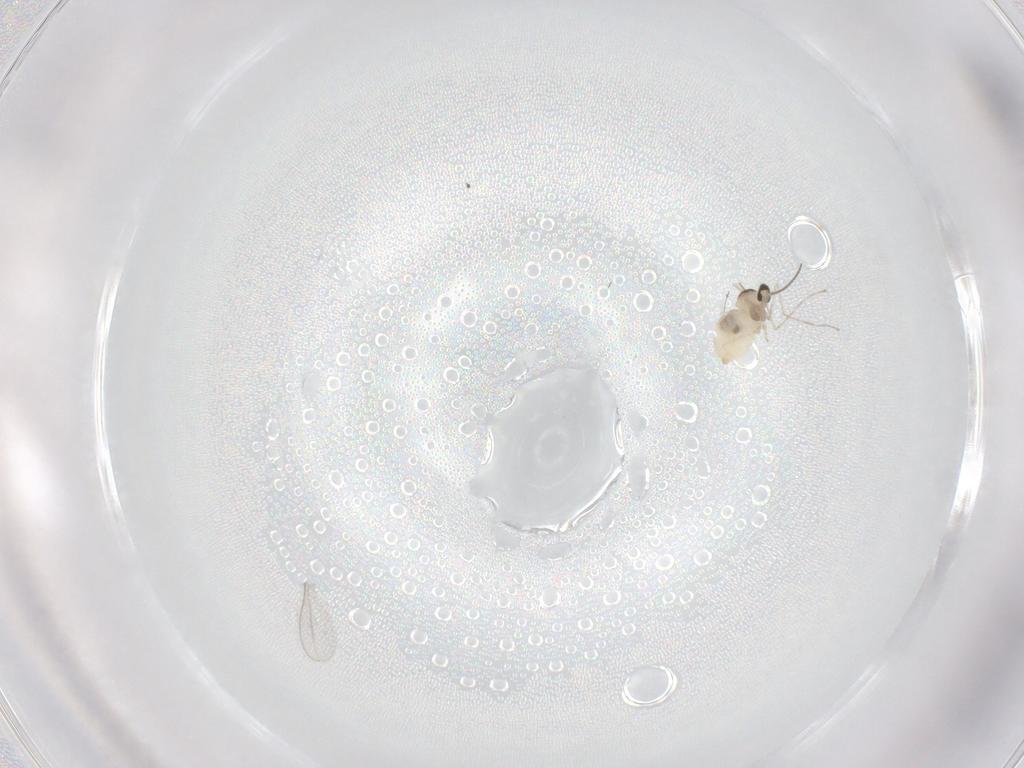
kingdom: Animalia
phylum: Arthropoda
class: Insecta
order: Diptera
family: Cecidomyiidae
